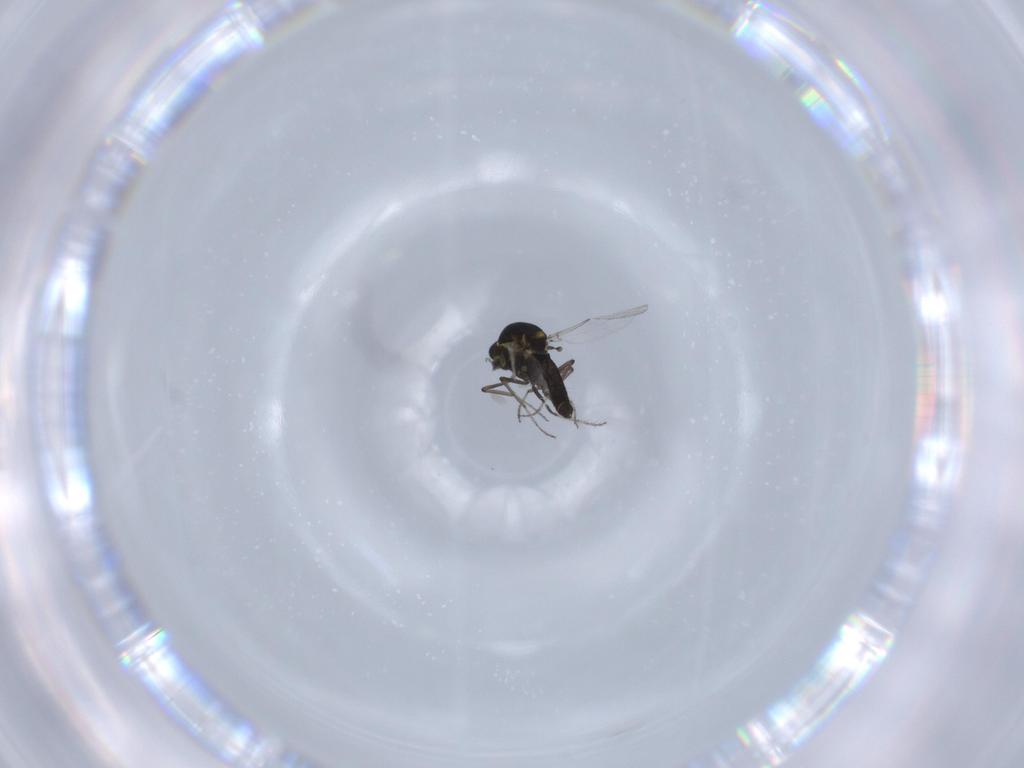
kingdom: Animalia
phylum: Arthropoda
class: Insecta
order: Diptera
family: Ceratopogonidae
